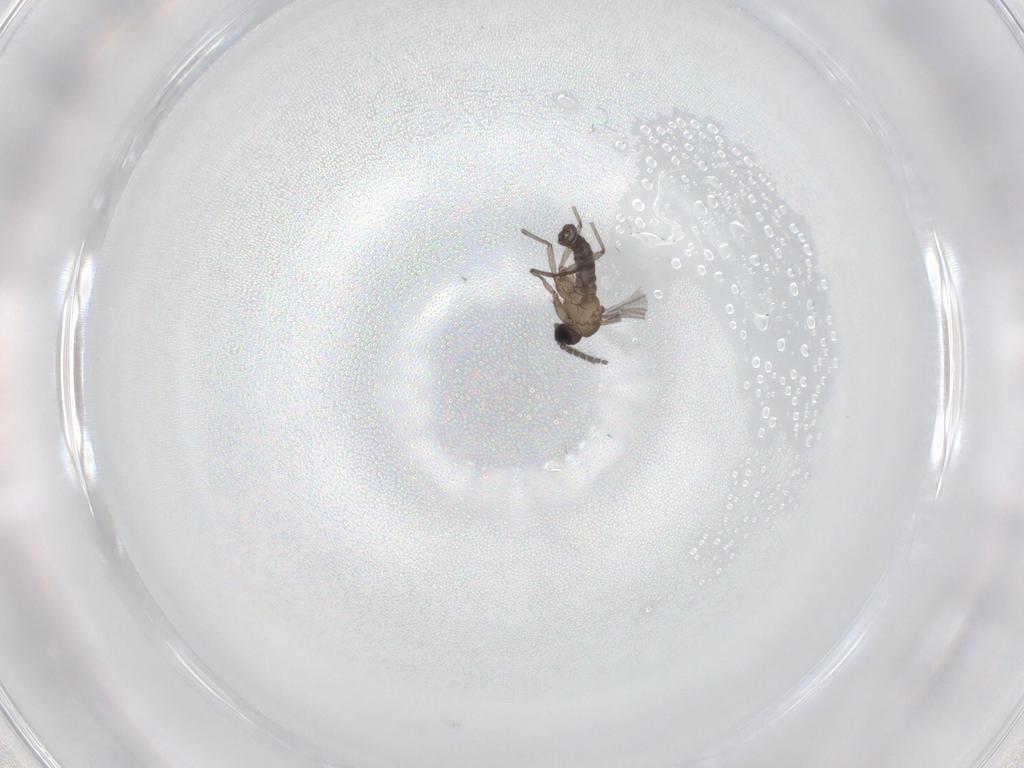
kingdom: Animalia
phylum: Arthropoda
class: Insecta
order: Diptera
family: Sciaridae
